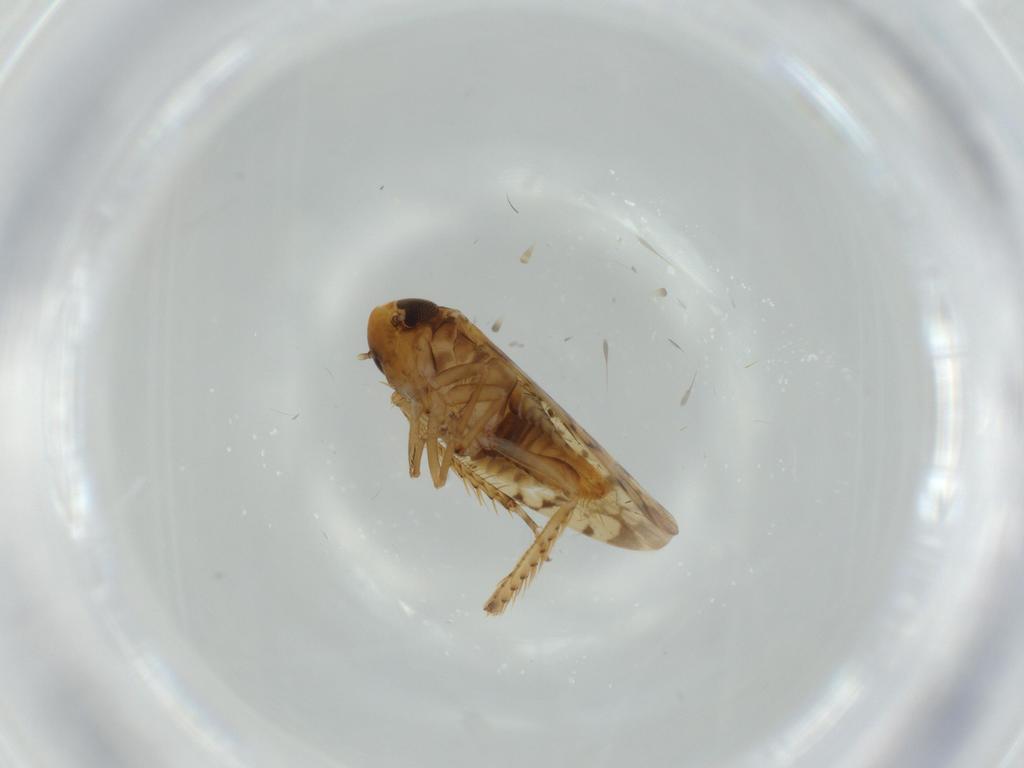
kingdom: Animalia
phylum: Arthropoda
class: Insecta
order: Hemiptera
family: Cicadellidae
